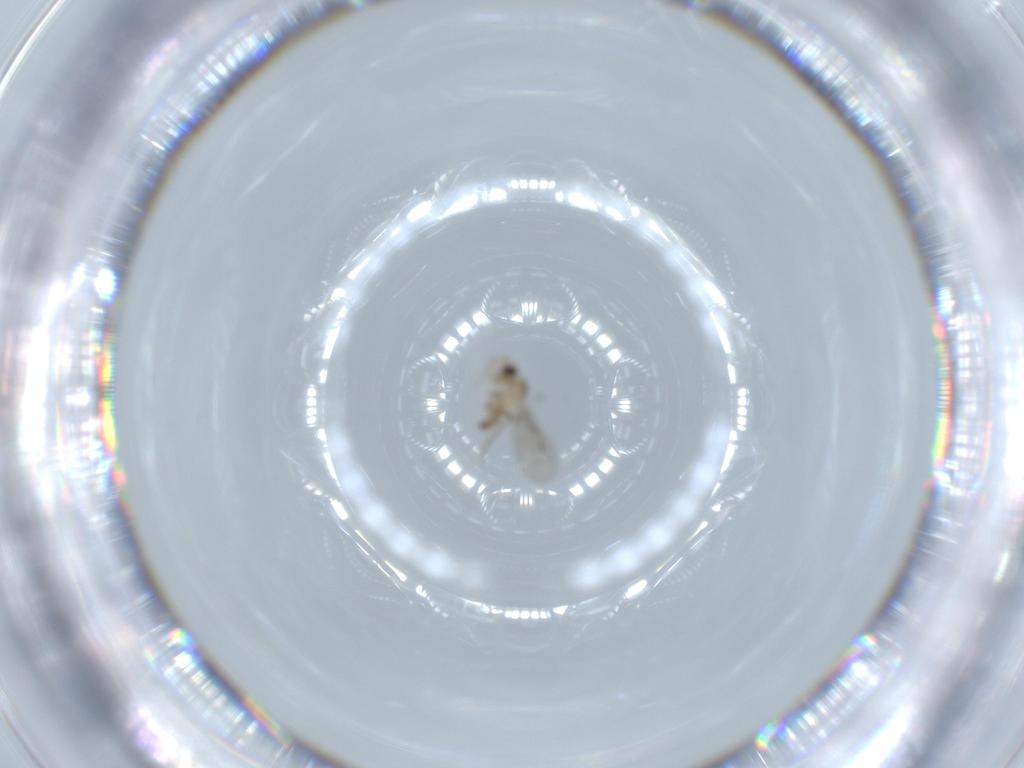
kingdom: Animalia
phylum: Arthropoda
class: Insecta
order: Diptera
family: Phoridae
